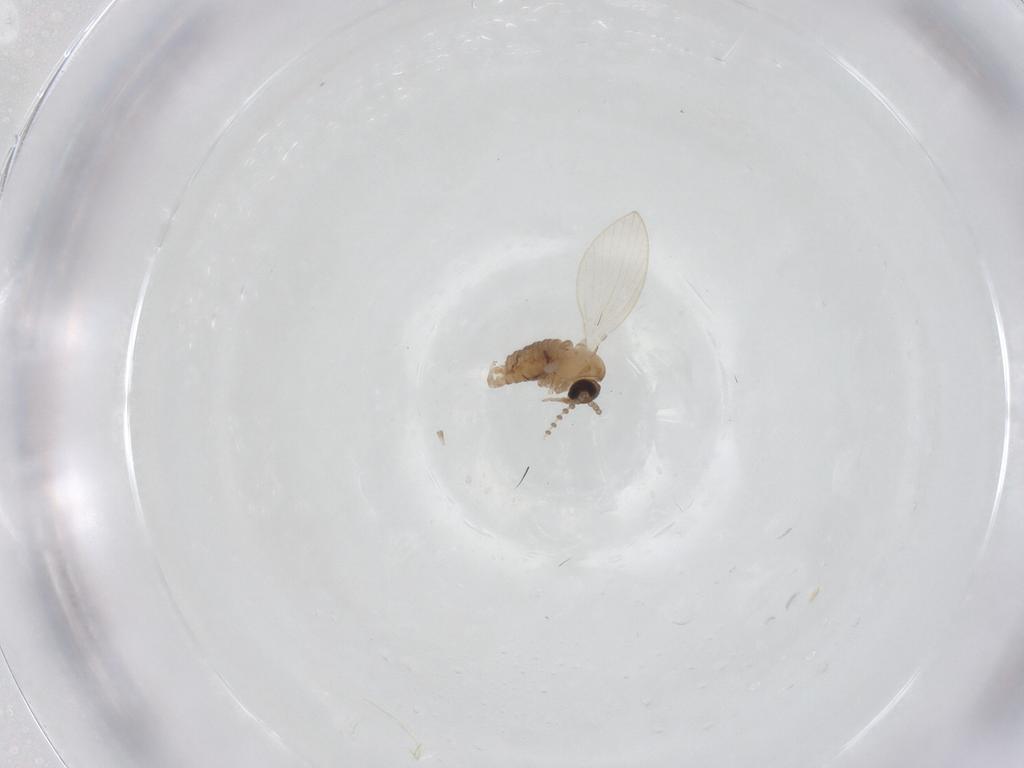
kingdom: Animalia
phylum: Arthropoda
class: Insecta
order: Diptera
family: Psychodidae
